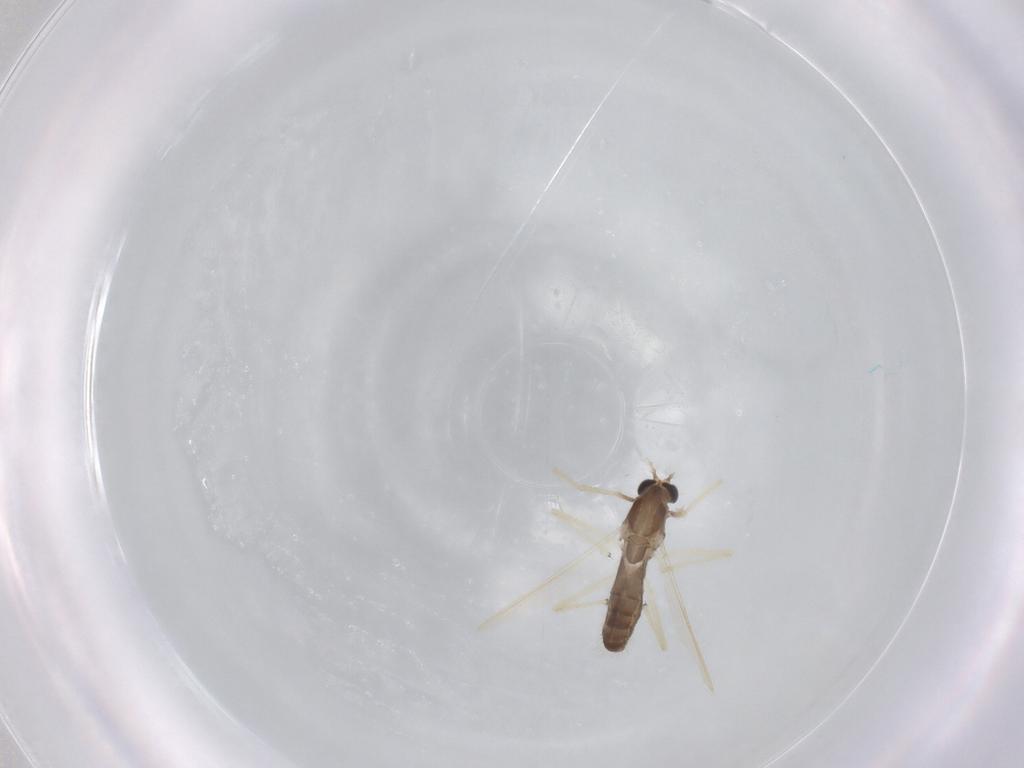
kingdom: Animalia
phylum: Arthropoda
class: Insecta
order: Diptera
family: Chironomidae
